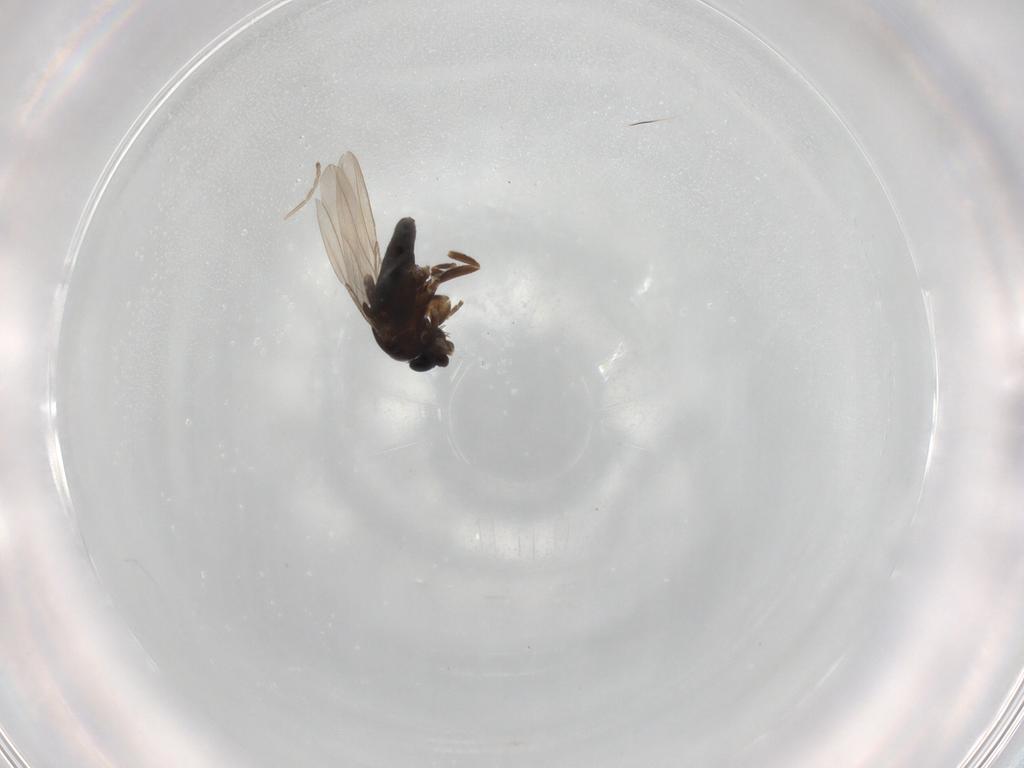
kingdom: Animalia
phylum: Arthropoda
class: Insecta
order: Diptera
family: Phoridae
